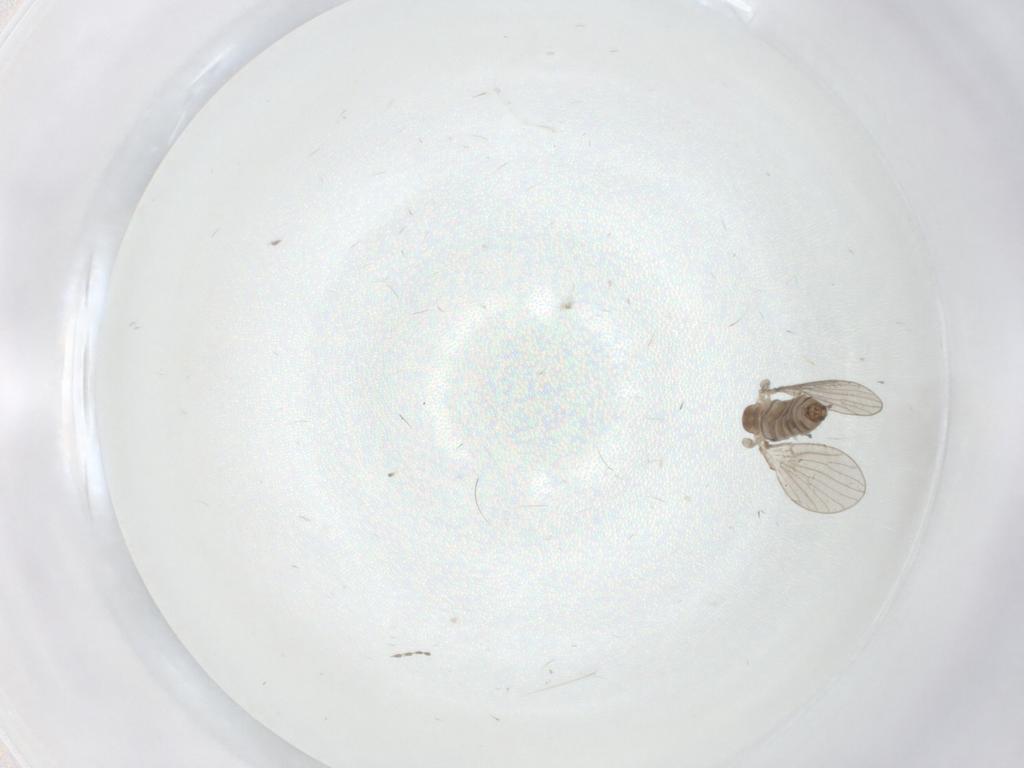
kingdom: Animalia
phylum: Arthropoda
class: Insecta
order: Diptera
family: Psychodidae
